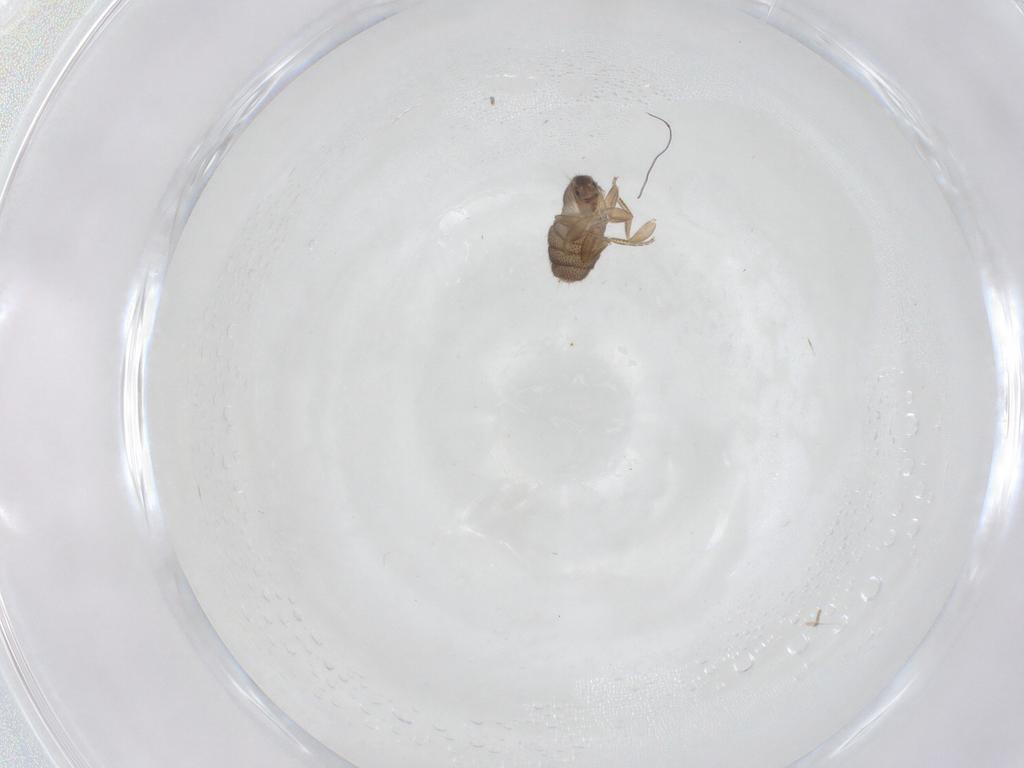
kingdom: Animalia
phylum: Arthropoda
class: Insecta
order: Diptera
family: Phoridae
